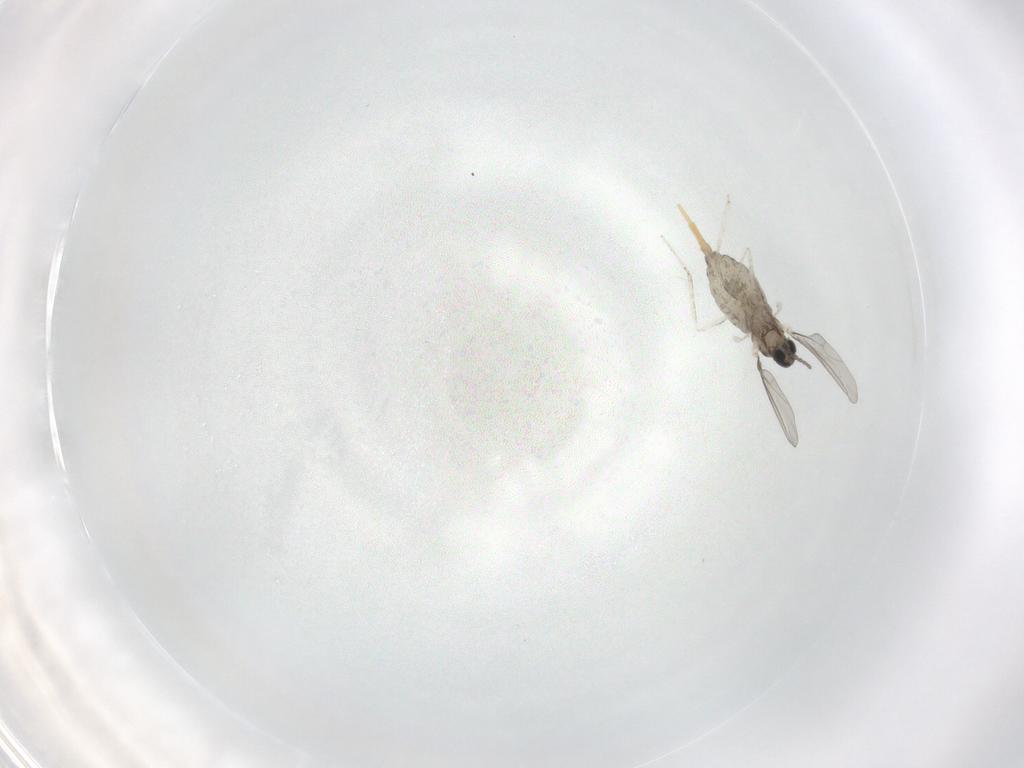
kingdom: Animalia
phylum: Arthropoda
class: Insecta
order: Diptera
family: Cecidomyiidae
